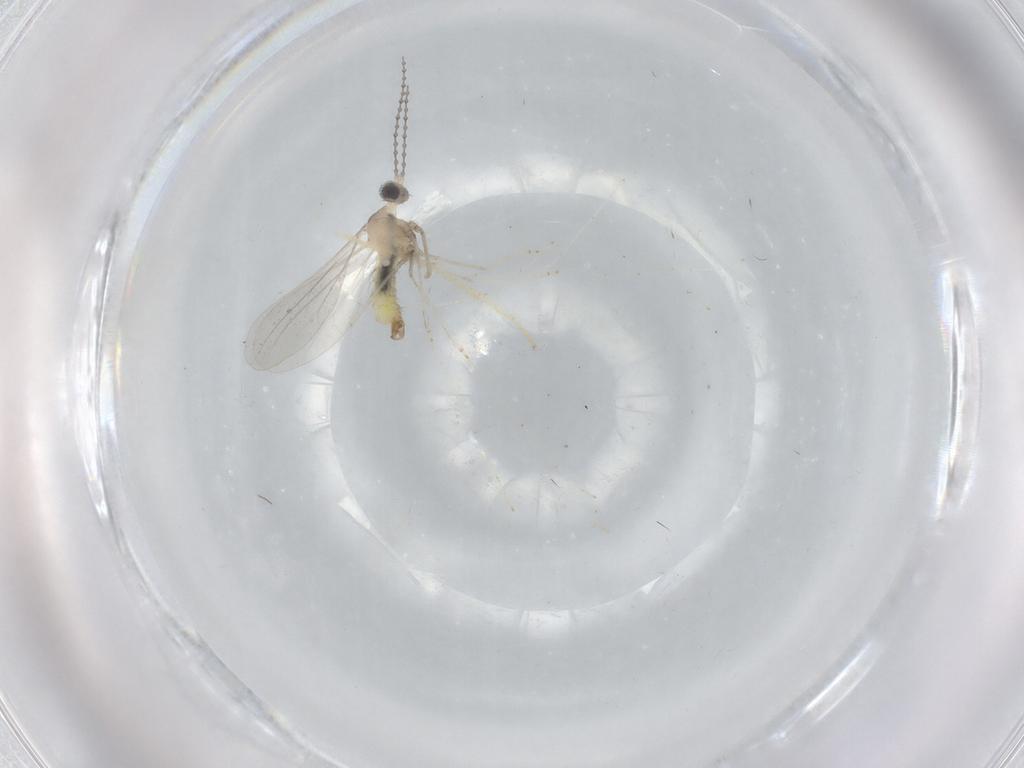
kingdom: Animalia
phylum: Arthropoda
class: Insecta
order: Diptera
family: Cecidomyiidae
